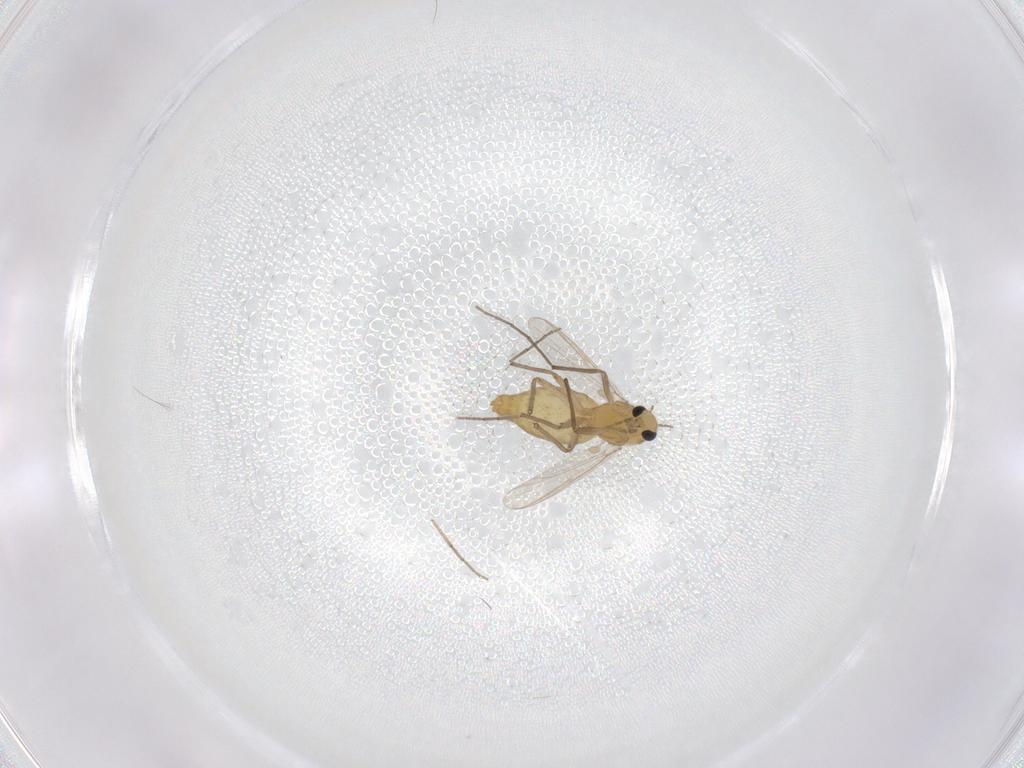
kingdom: Animalia
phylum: Arthropoda
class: Insecta
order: Diptera
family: Chironomidae
